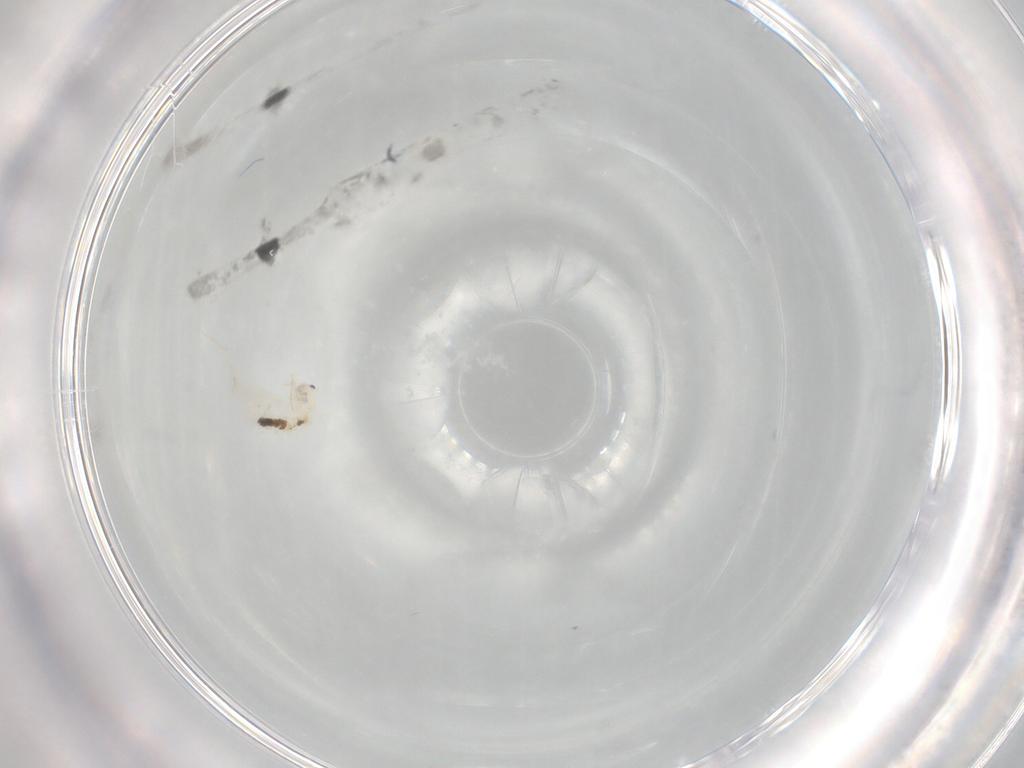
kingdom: Animalia
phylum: Arthropoda
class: Collembola
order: Entomobryomorpha
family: Entomobryidae
